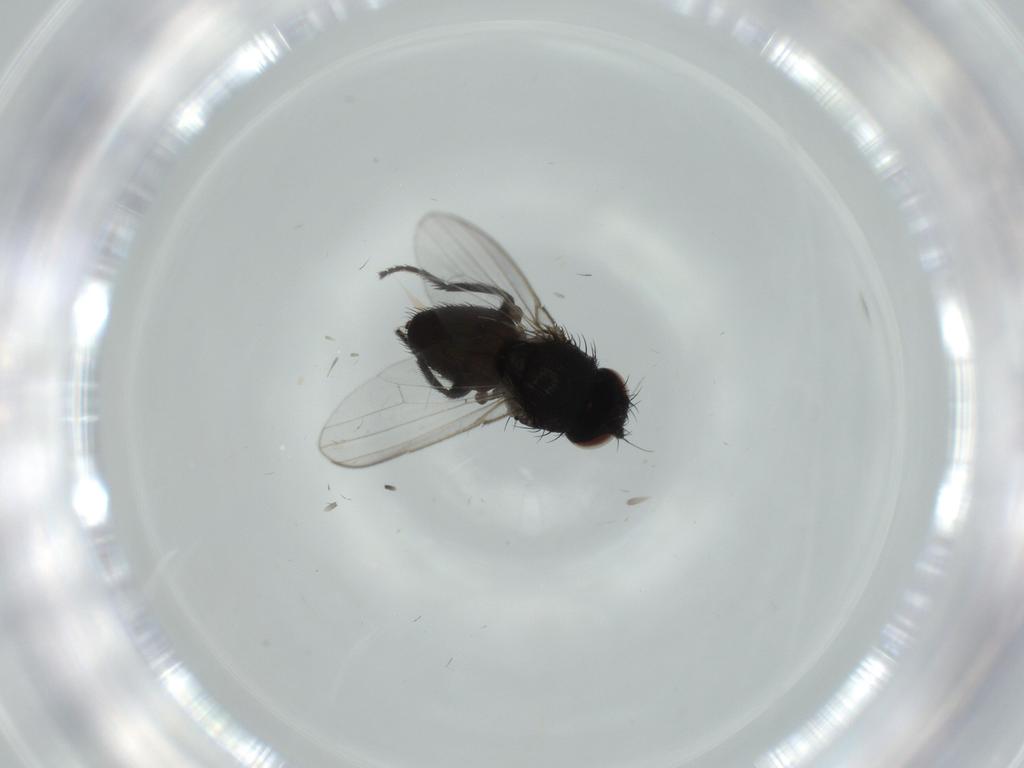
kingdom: Animalia
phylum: Arthropoda
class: Insecta
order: Diptera
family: Milichiidae
